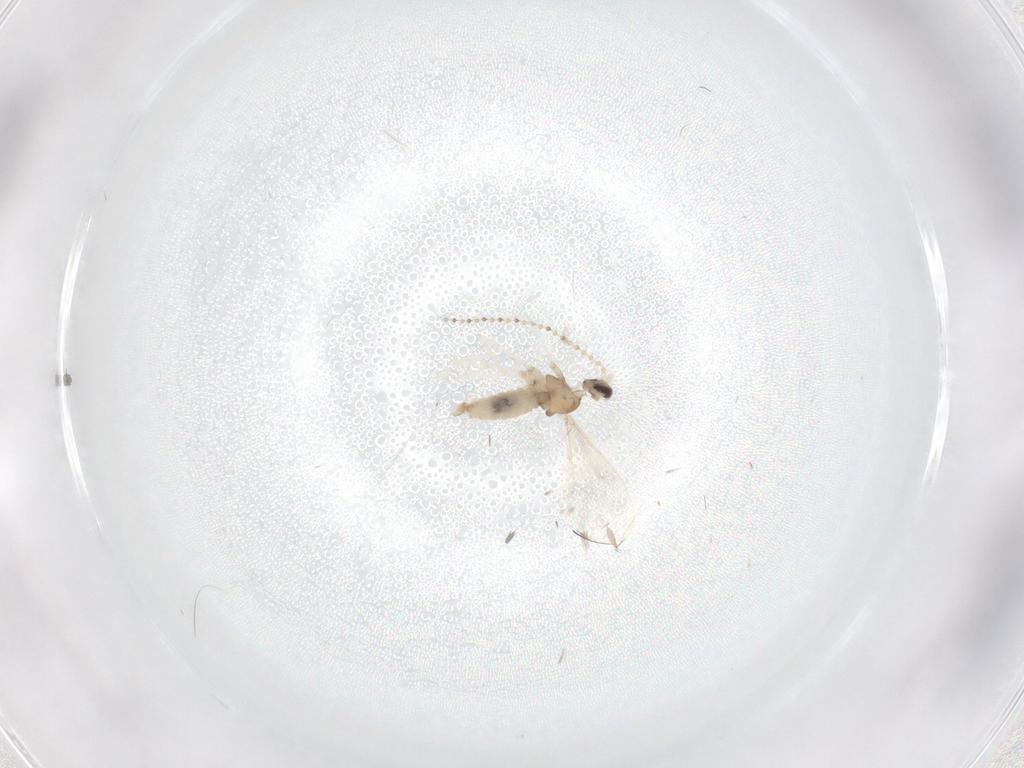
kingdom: Animalia
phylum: Arthropoda
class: Insecta
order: Diptera
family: Cecidomyiidae
